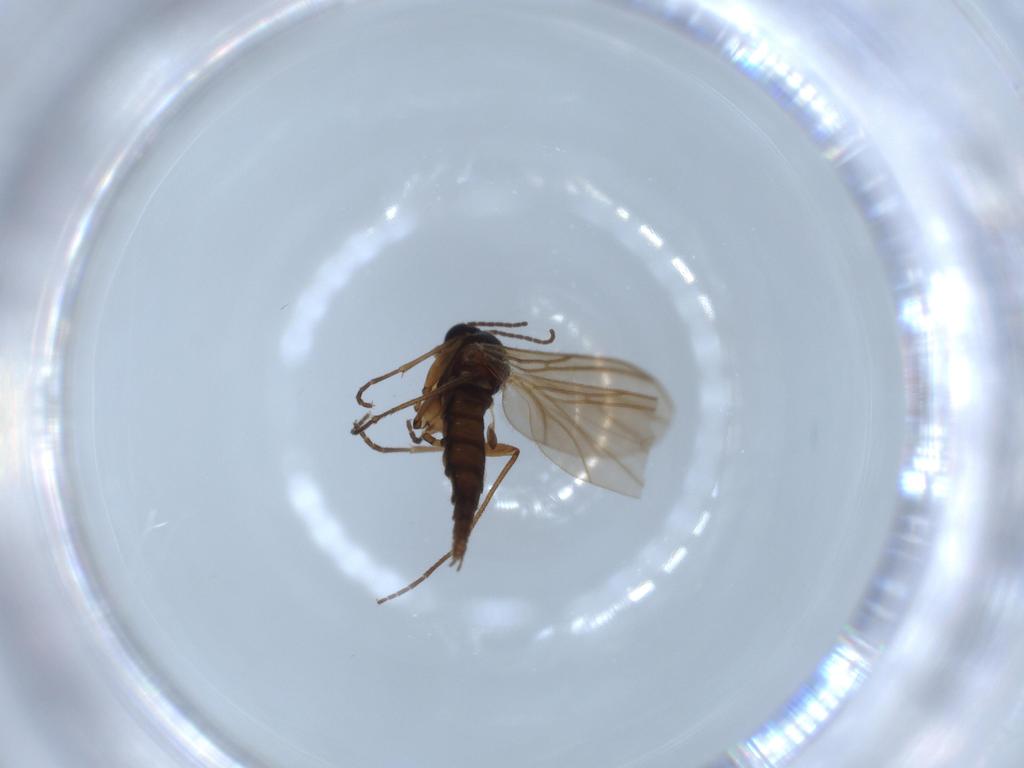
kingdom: Animalia
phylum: Arthropoda
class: Insecta
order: Diptera
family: Sciaridae
